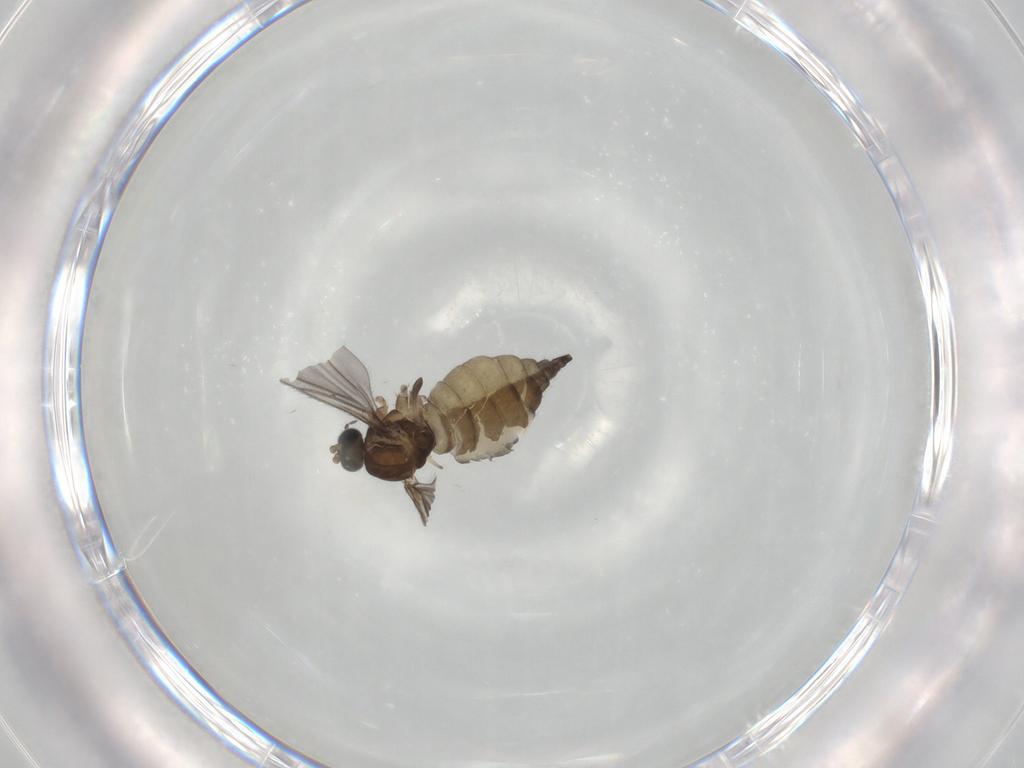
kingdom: Animalia
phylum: Arthropoda
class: Insecta
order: Diptera
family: Sciaridae
